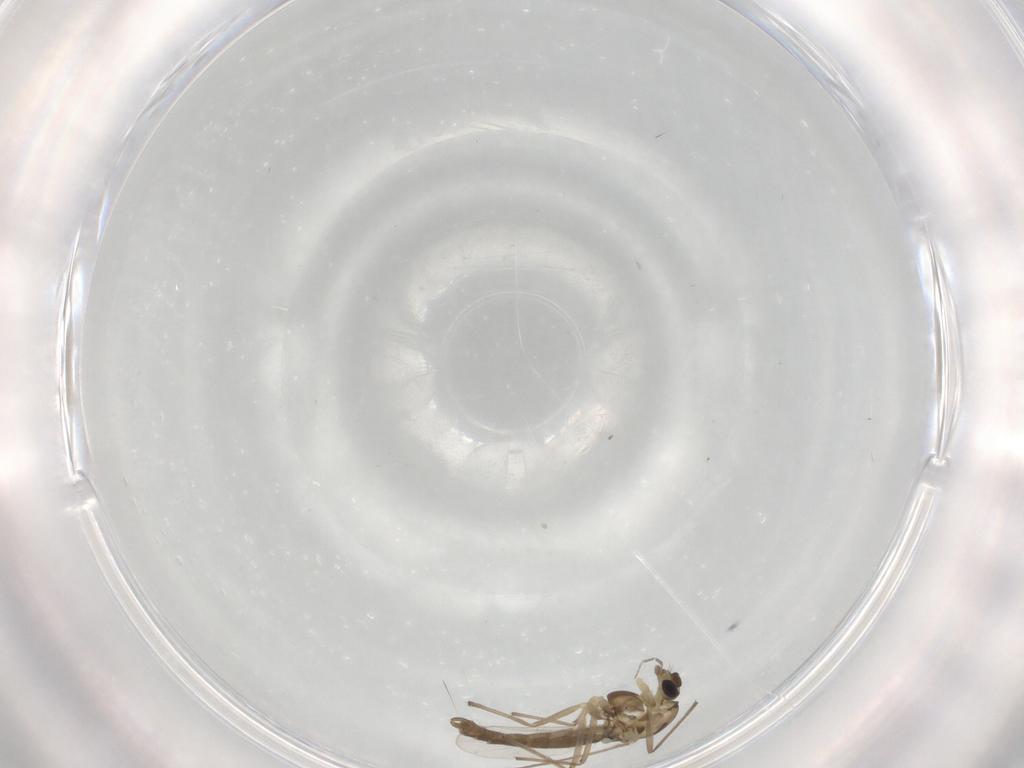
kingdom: Animalia
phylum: Arthropoda
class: Insecta
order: Diptera
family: Chironomidae
